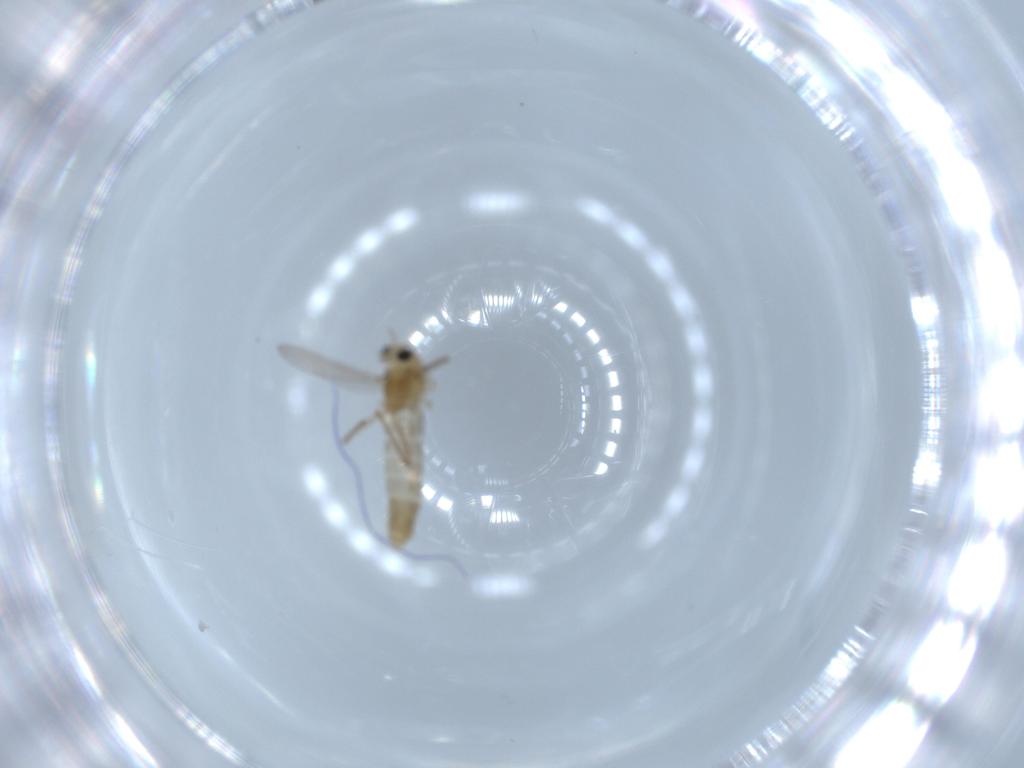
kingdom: Animalia
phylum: Arthropoda
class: Insecta
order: Diptera
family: Chironomidae
